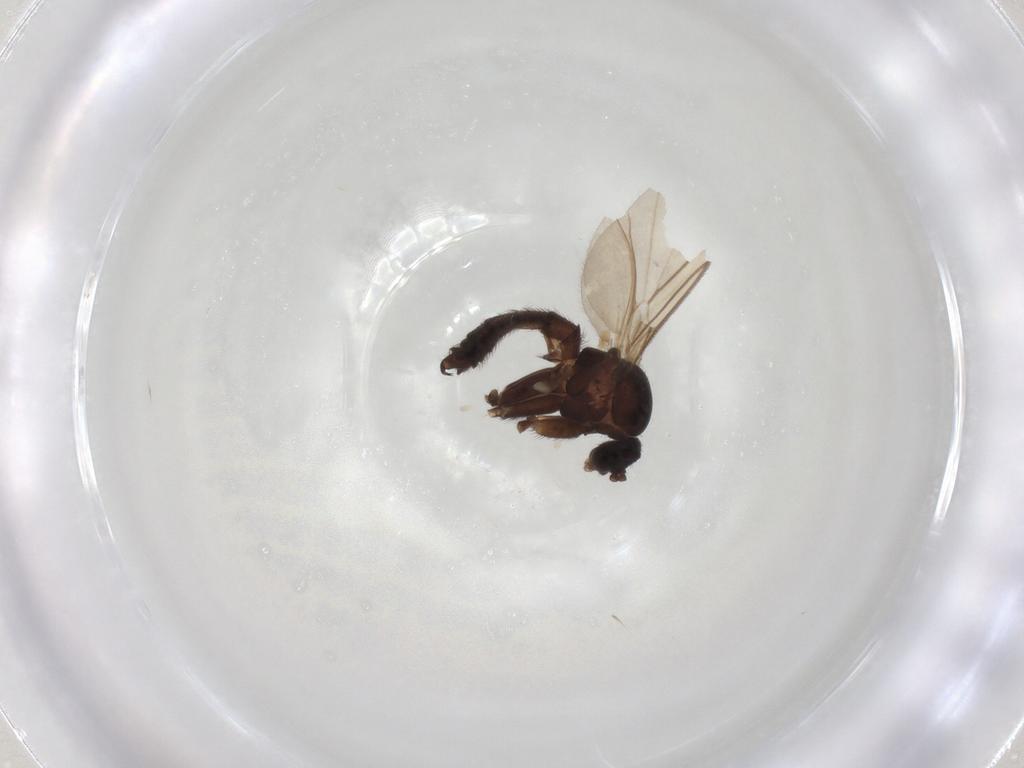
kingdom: Animalia
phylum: Arthropoda
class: Insecta
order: Diptera
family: Keroplatidae
